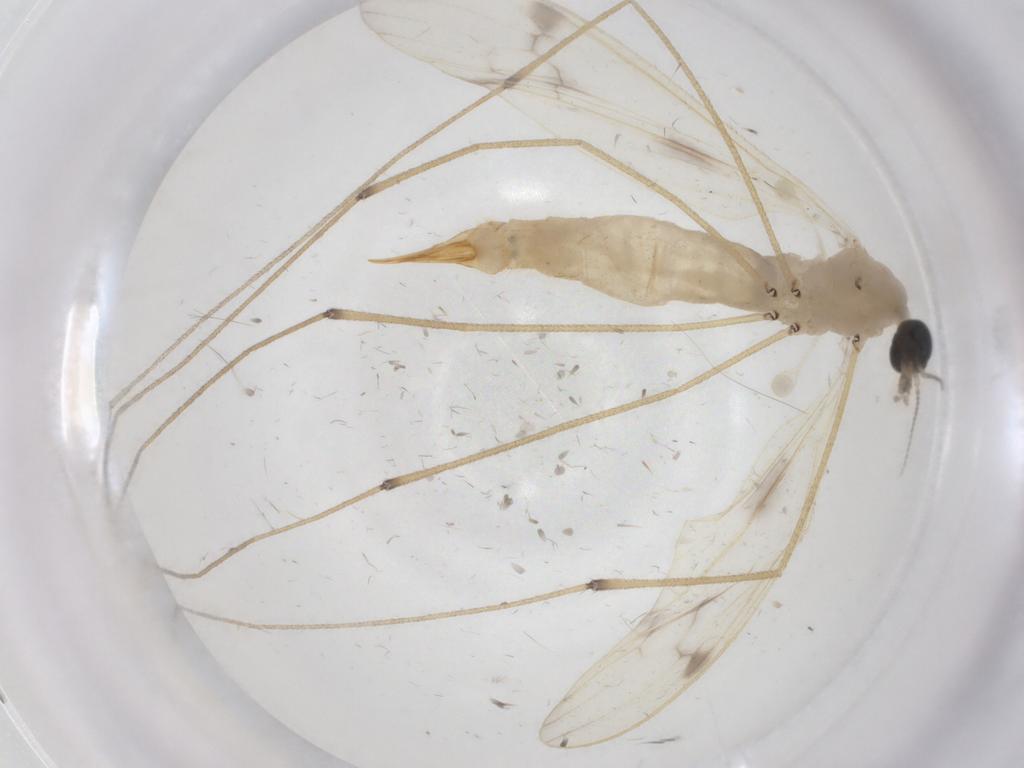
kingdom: Animalia
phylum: Arthropoda
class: Insecta
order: Diptera
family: Limoniidae
